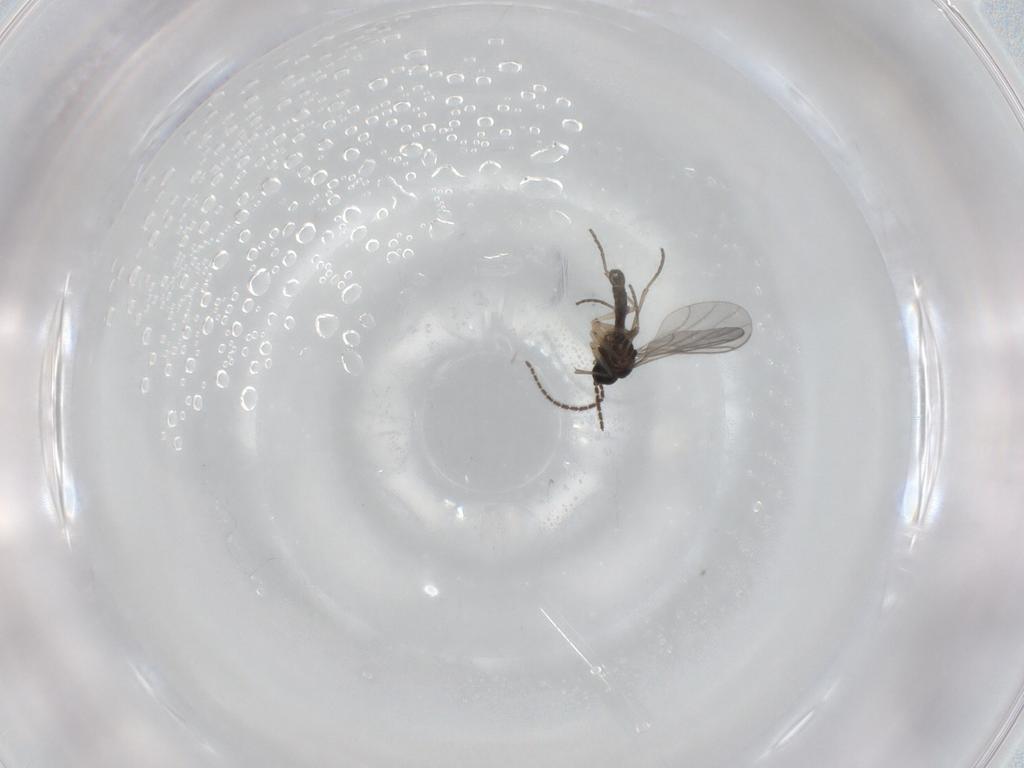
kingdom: Animalia
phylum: Arthropoda
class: Insecta
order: Diptera
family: Sciaridae
